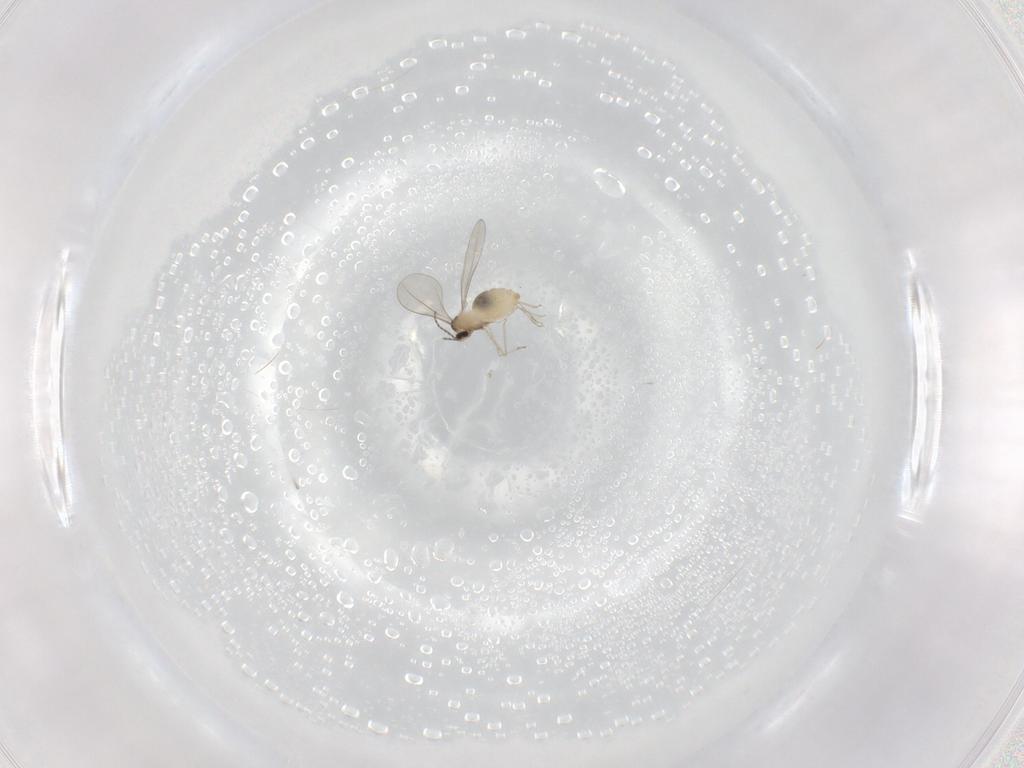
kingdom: Animalia
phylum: Arthropoda
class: Insecta
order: Diptera
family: Cecidomyiidae
